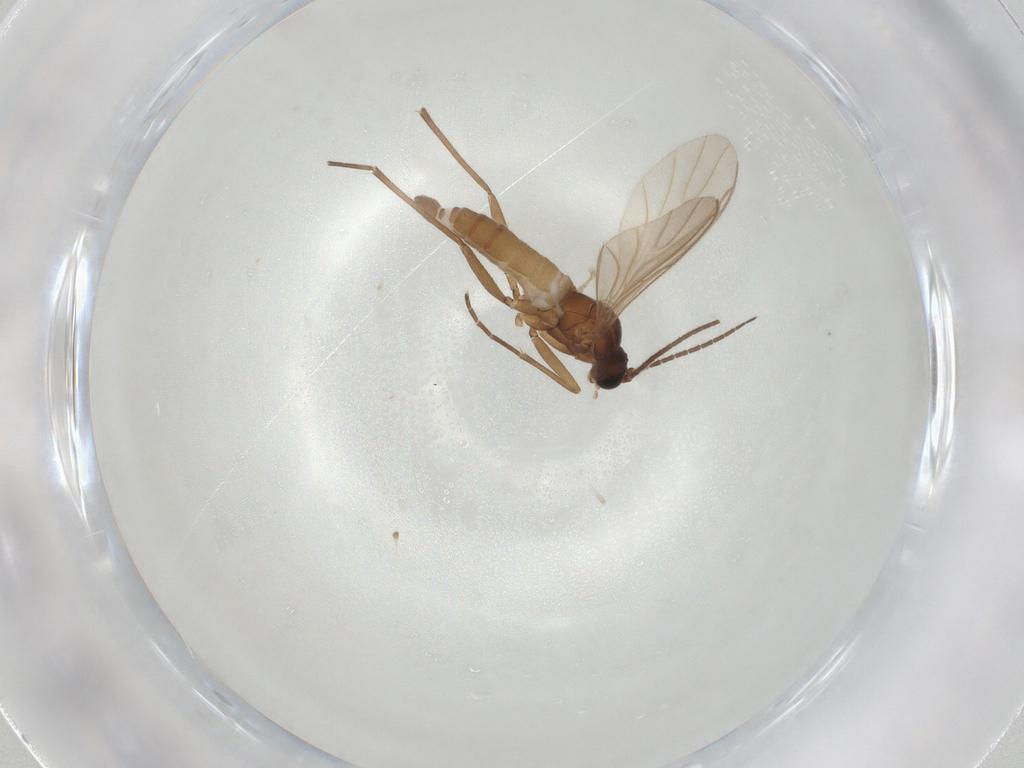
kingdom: Animalia
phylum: Arthropoda
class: Insecta
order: Diptera
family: Sciaridae
